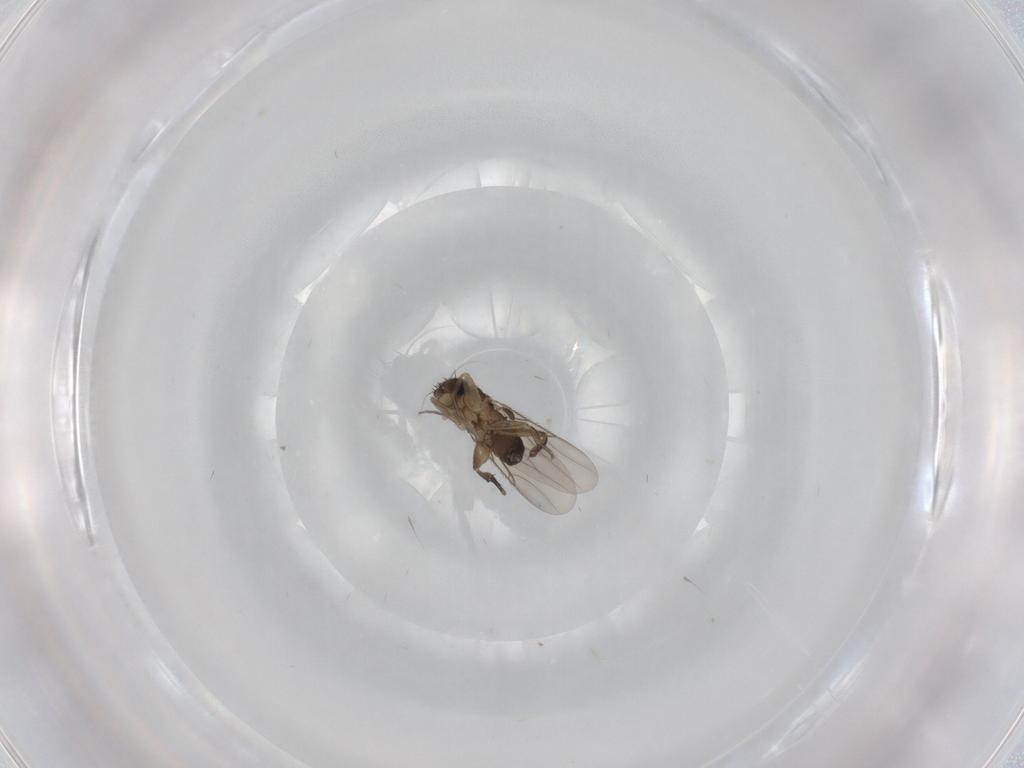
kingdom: Animalia
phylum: Arthropoda
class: Insecta
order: Diptera
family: Phoridae
